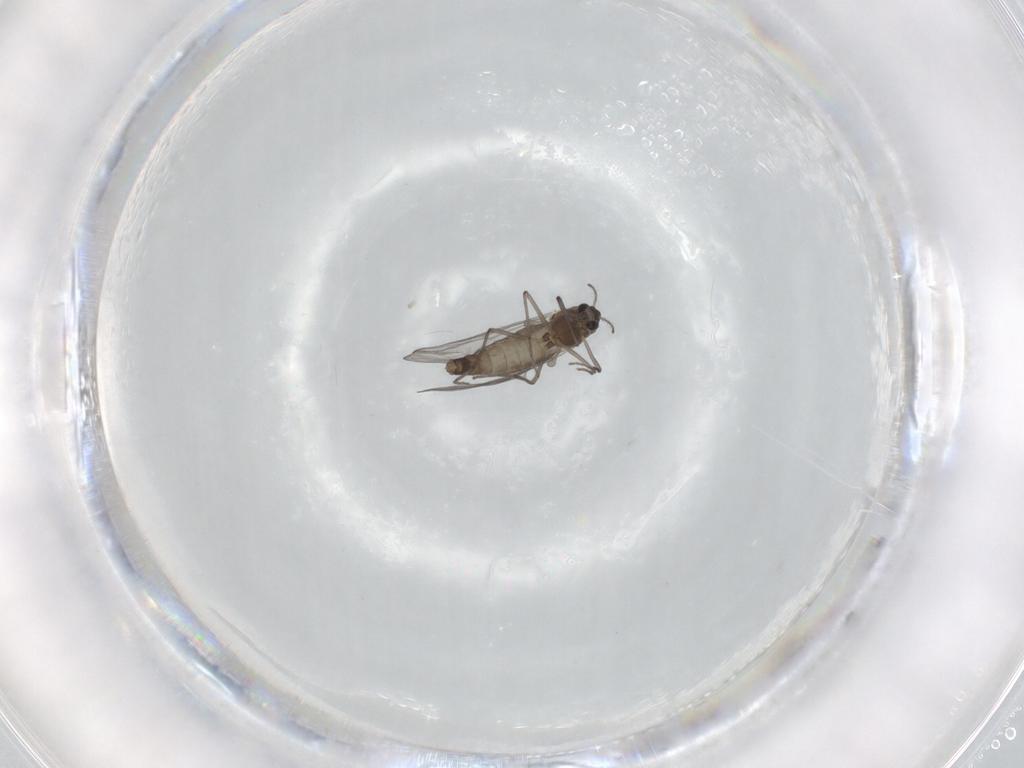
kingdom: Animalia
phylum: Arthropoda
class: Insecta
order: Diptera
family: Chironomidae
